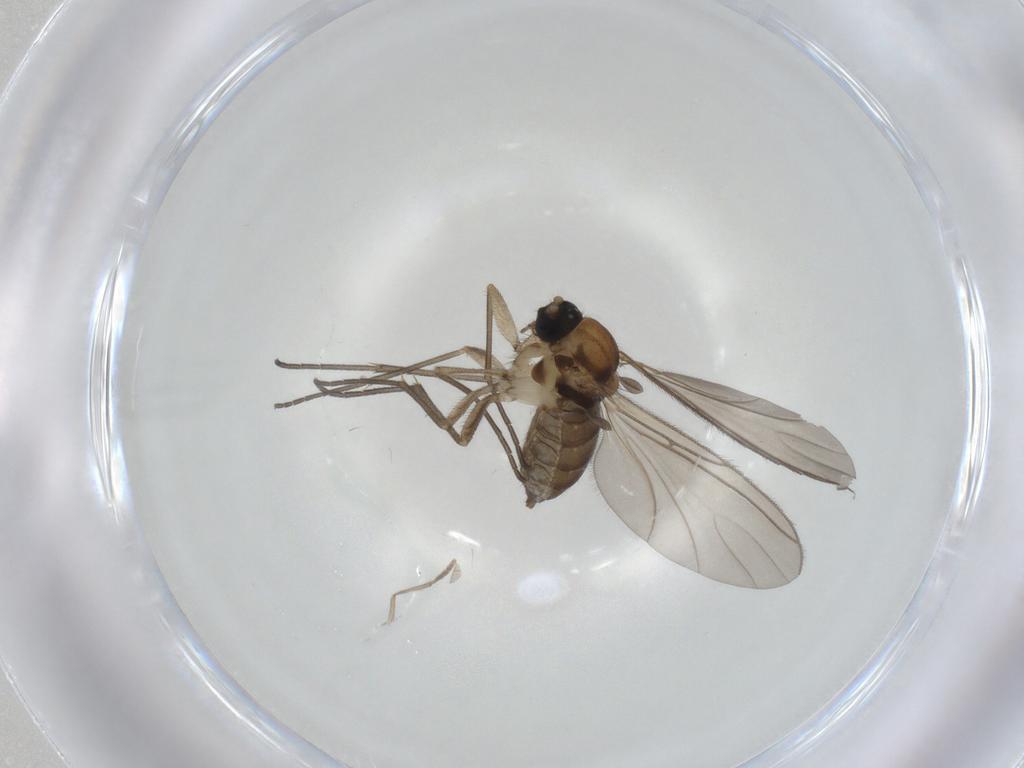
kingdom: Animalia
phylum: Arthropoda
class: Insecta
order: Diptera
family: Sciaridae
